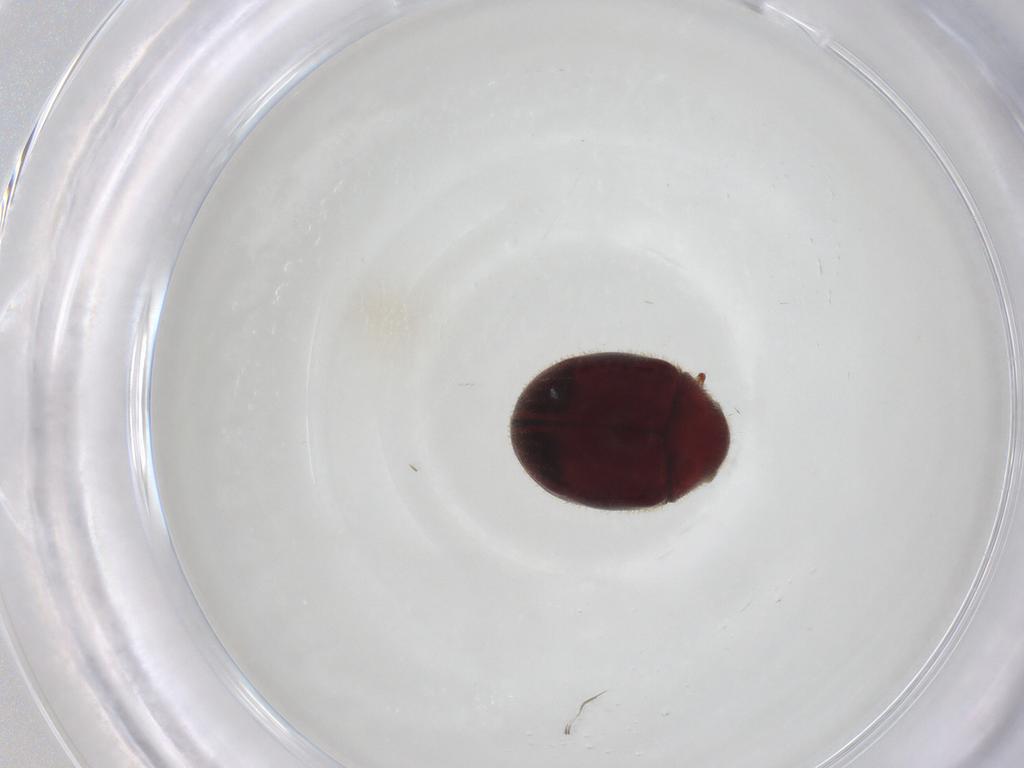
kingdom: Animalia
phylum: Arthropoda
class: Insecta
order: Coleoptera
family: Ptinidae
